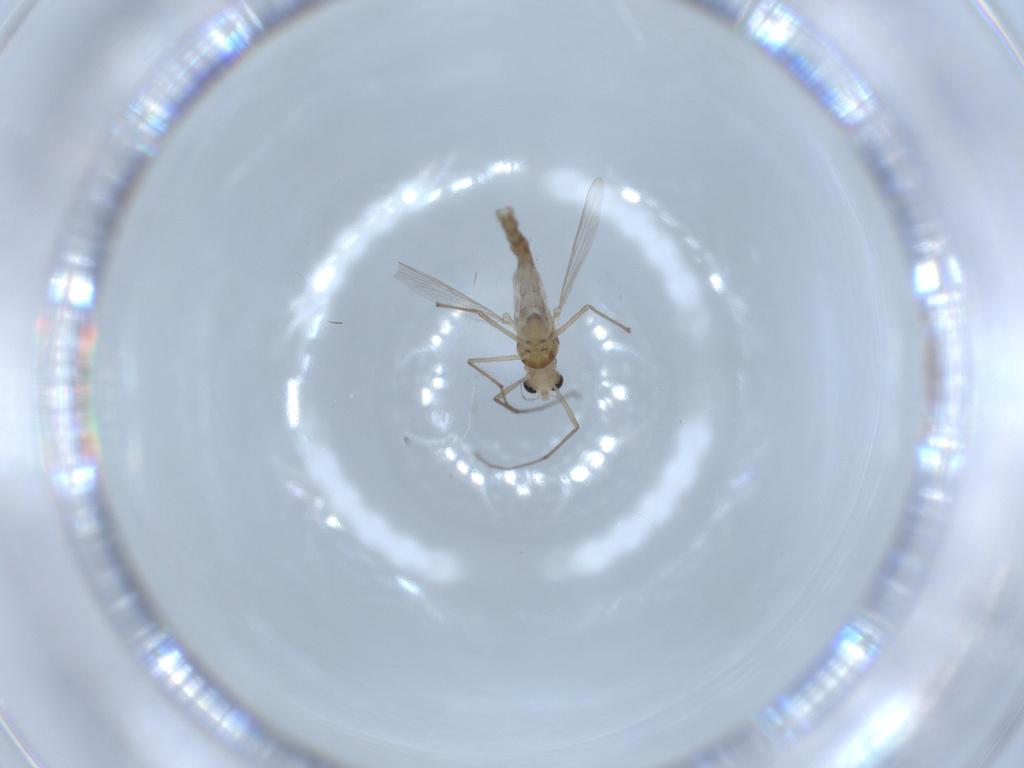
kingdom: Animalia
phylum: Arthropoda
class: Insecta
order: Diptera
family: Chironomidae
